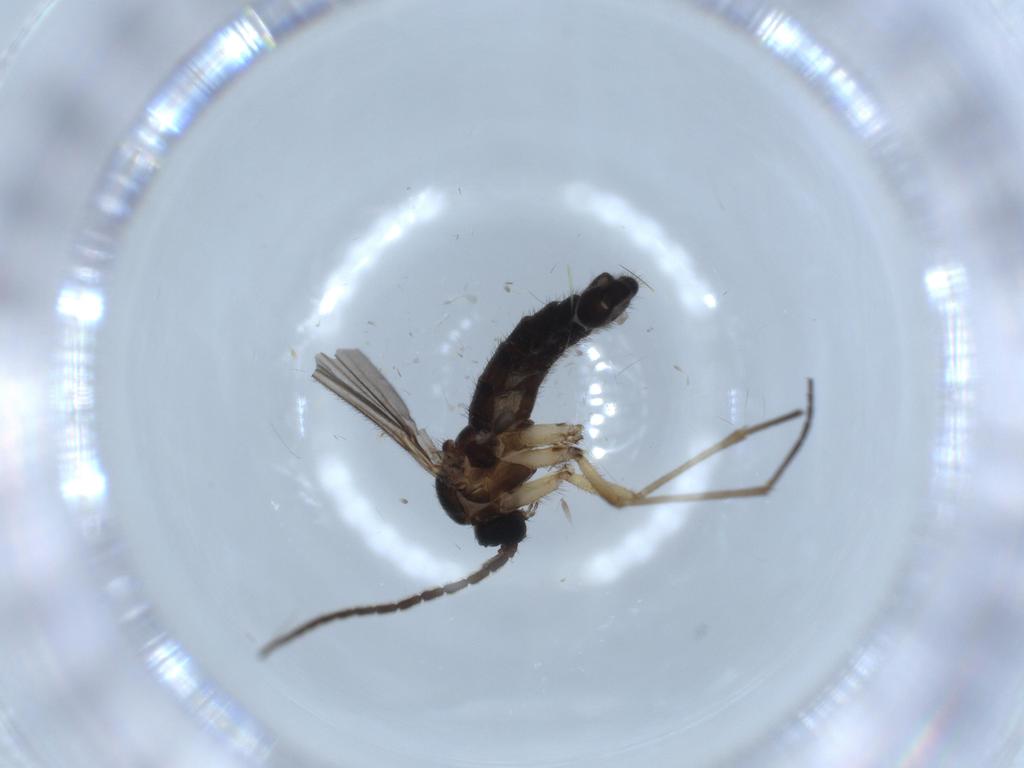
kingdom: Animalia
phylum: Arthropoda
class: Insecta
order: Diptera
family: Sciaridae
